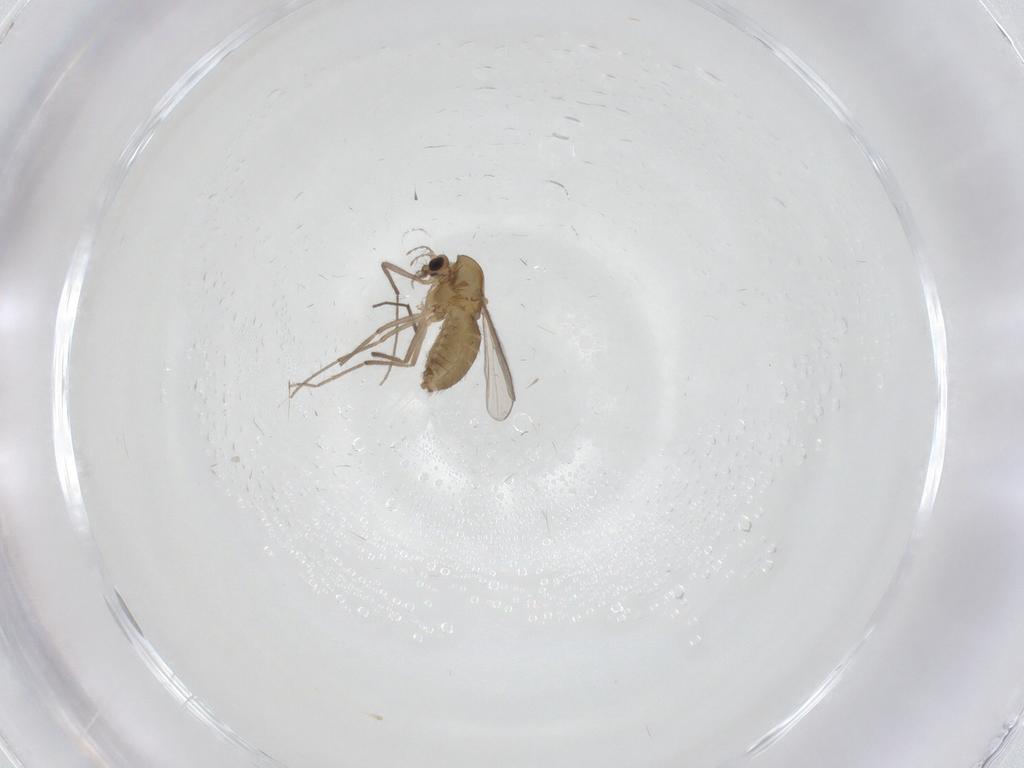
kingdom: Animalia
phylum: Arthropoda
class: Insecta
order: Diptera
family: Chironomidae
